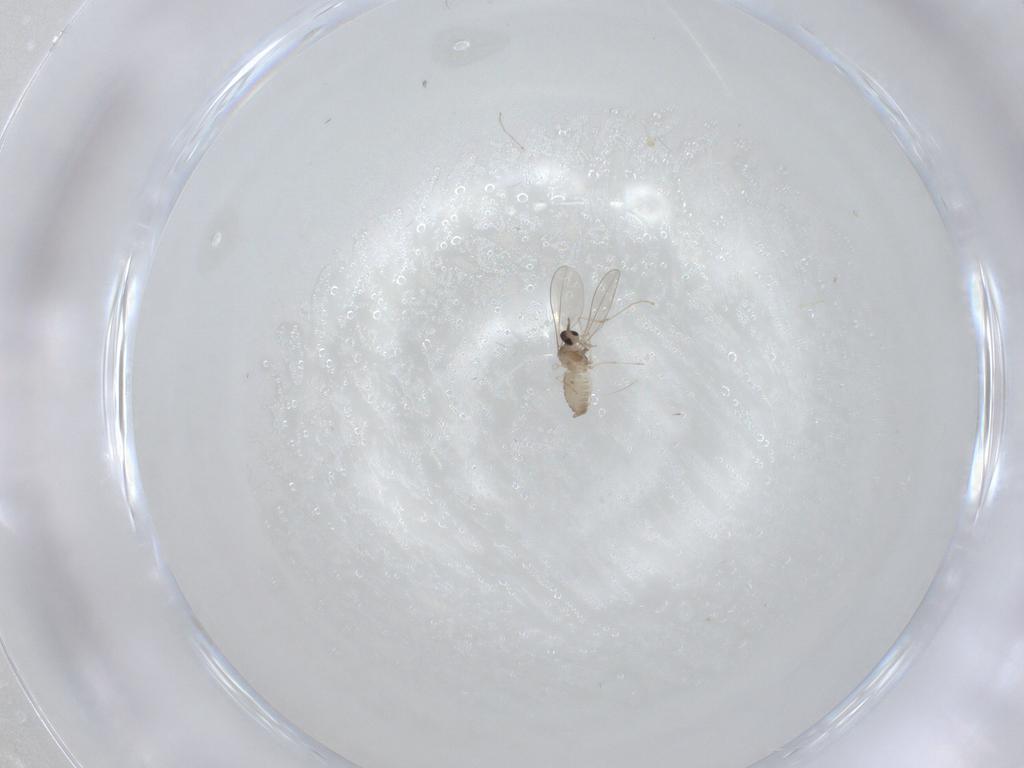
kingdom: Animalia
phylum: Arthropoda
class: Insecta
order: Diptera
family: Cecidomyiidae
